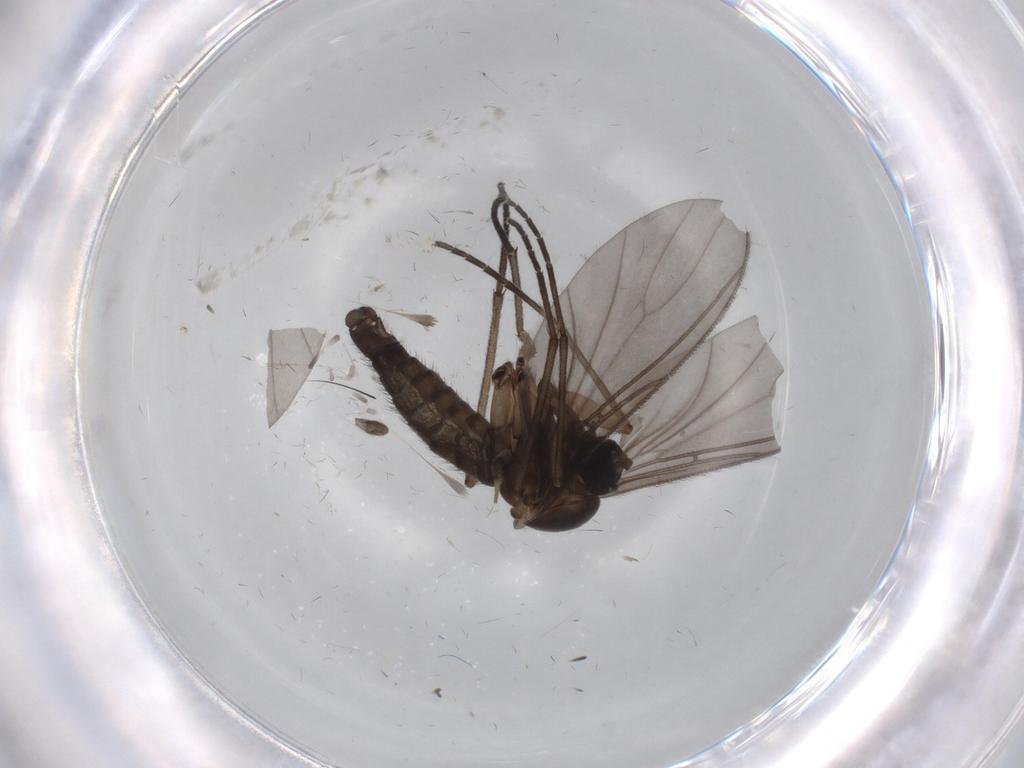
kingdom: Animalia
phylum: Arthropoda
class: Insecta
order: Diptera
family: Sciaridae
